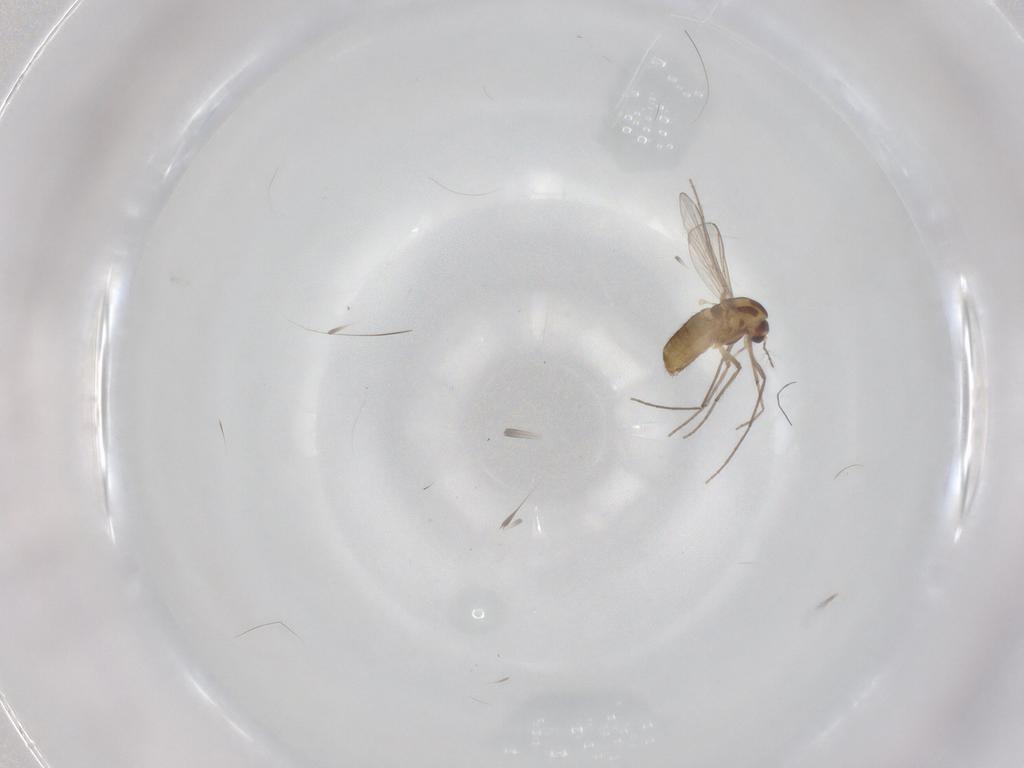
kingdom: Animalia
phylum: Arthropoda
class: Insecta
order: Diptera
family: Chironomidae
